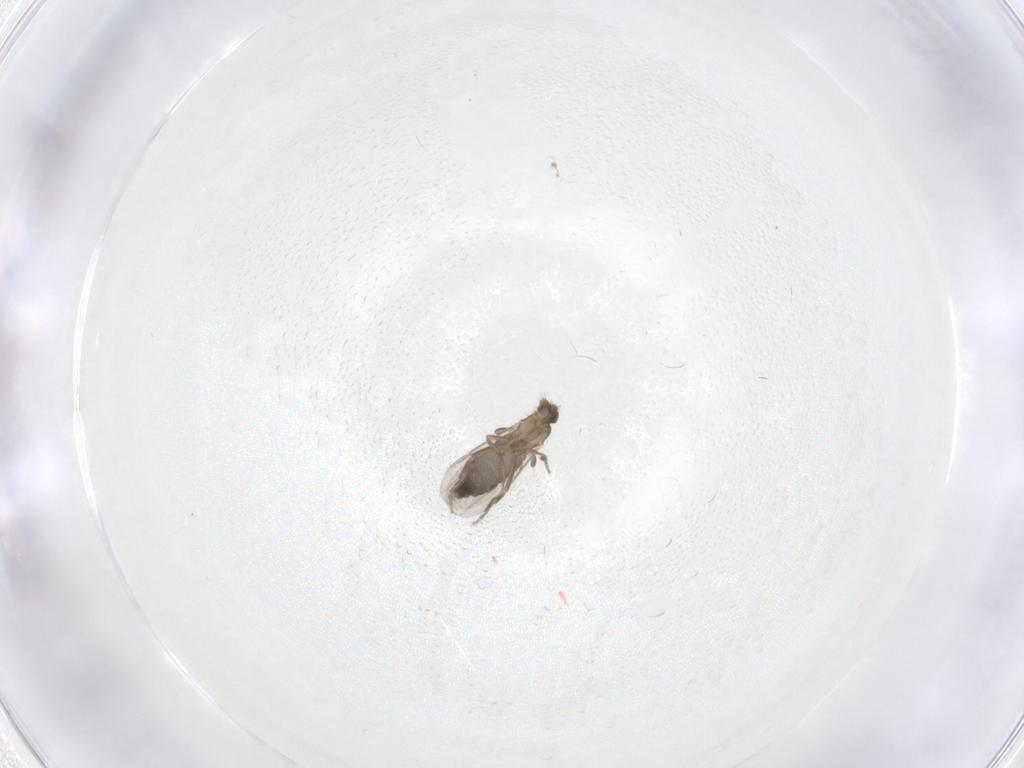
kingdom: Animalia
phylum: Arthropoda
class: Insecta
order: Diptera
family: Phoridae
